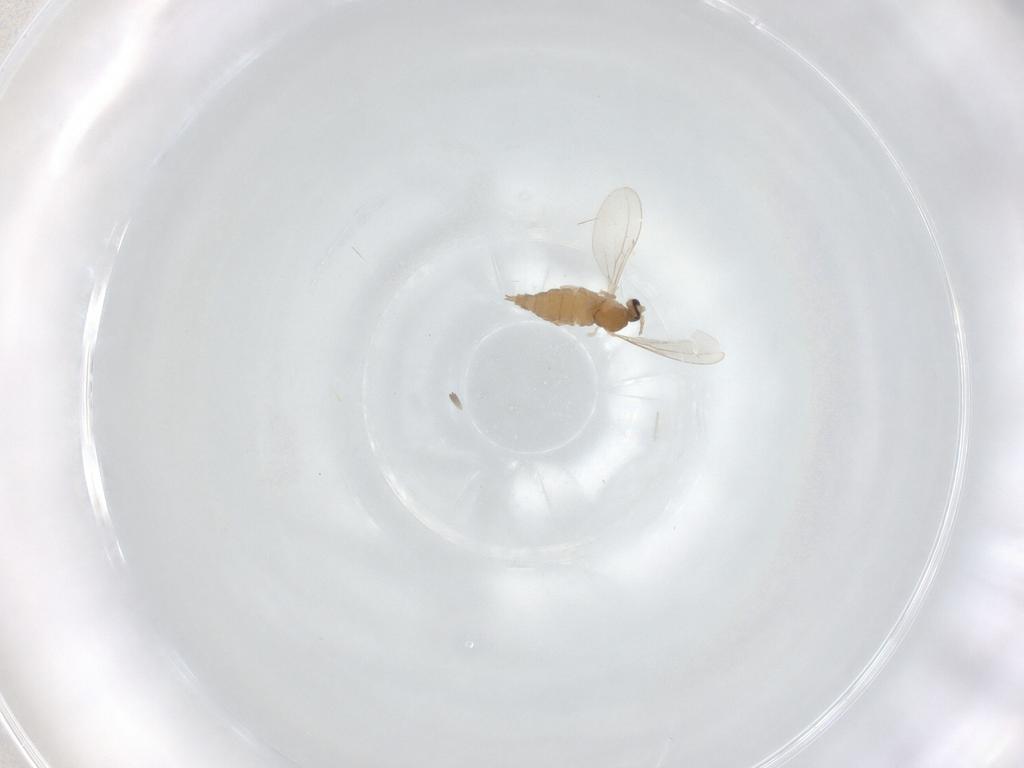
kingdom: Animalia
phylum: Arthropoda
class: Insecta
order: Diptera
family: Cecidomyiidae
